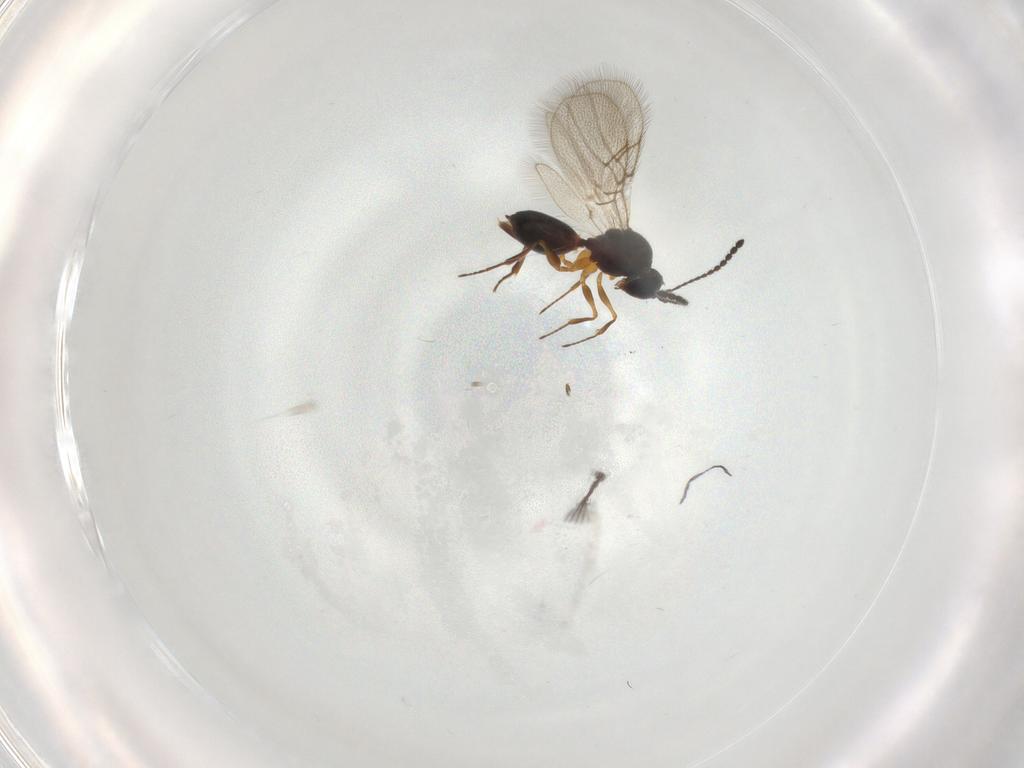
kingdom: Animalia
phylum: Arthropoda
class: Insecta
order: Hymenoptera
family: Figitidae
